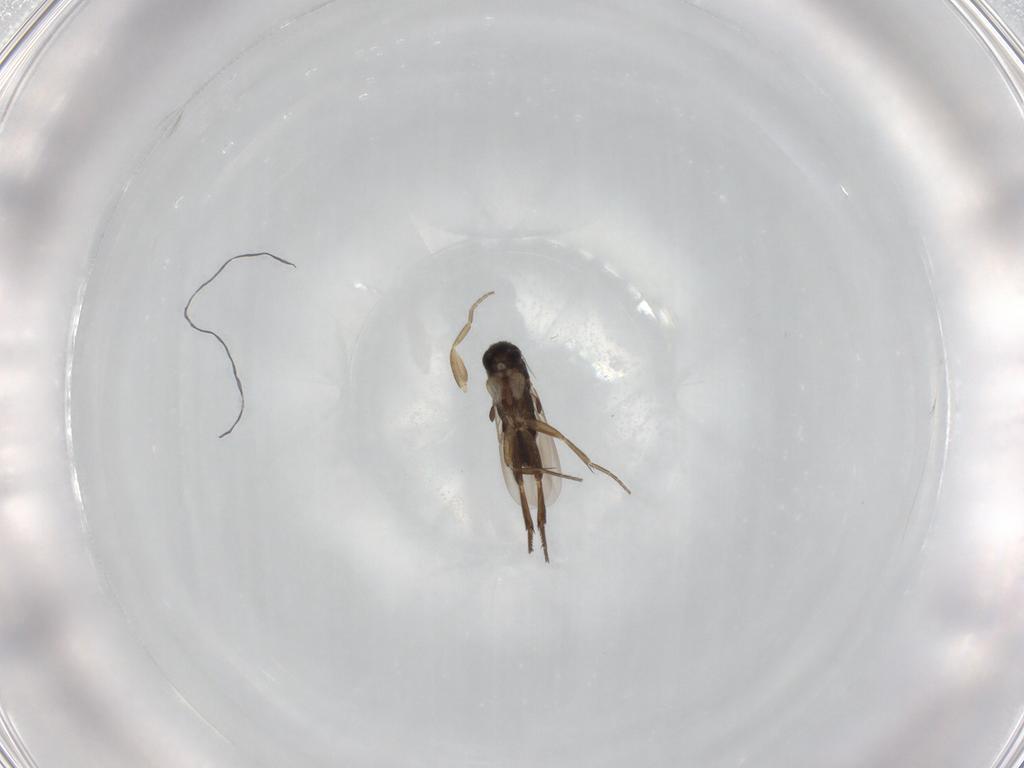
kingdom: Animalia
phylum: Arthropoda
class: Insecta
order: Diptera
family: Phoridae
